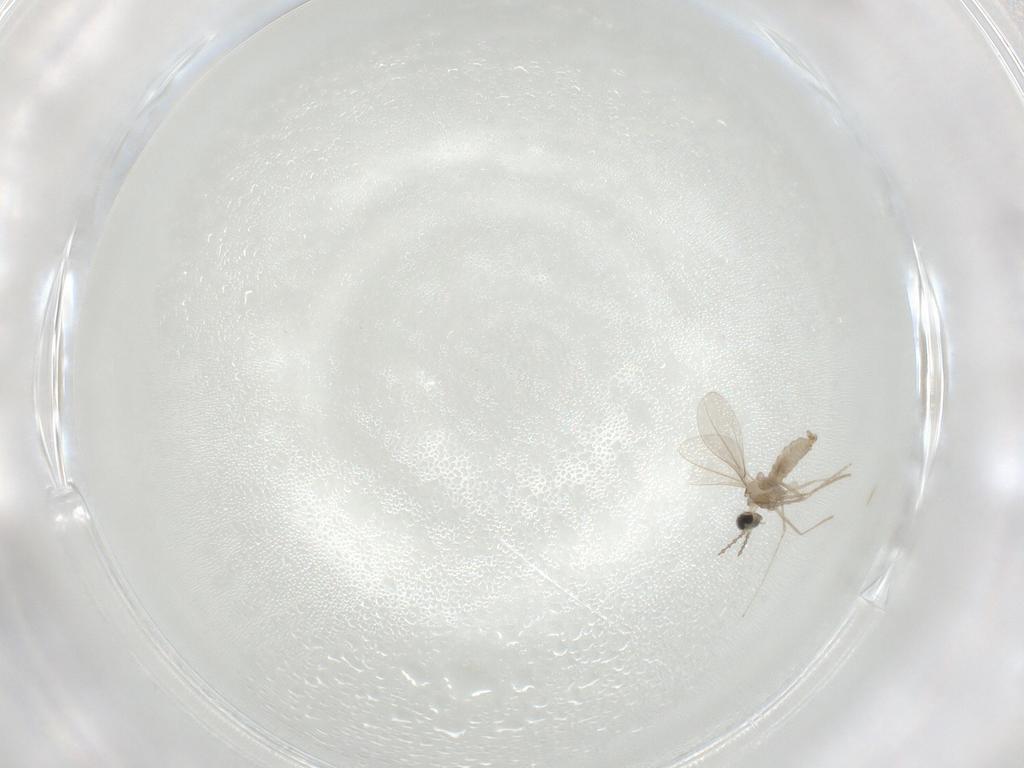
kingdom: Animalia
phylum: Arthropoda
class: Insecta
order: Diptera
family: Cecidomyiidae
